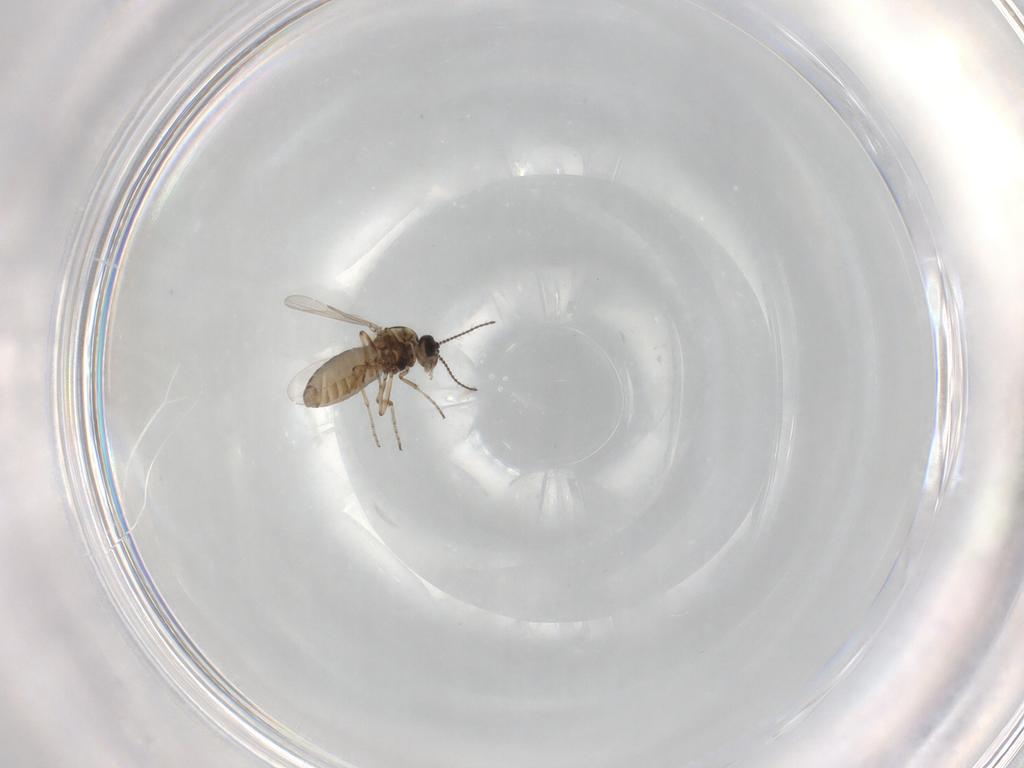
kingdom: Animalia
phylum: Arthropoda
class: Insecta
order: Diptera
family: Ceratopogonidae
